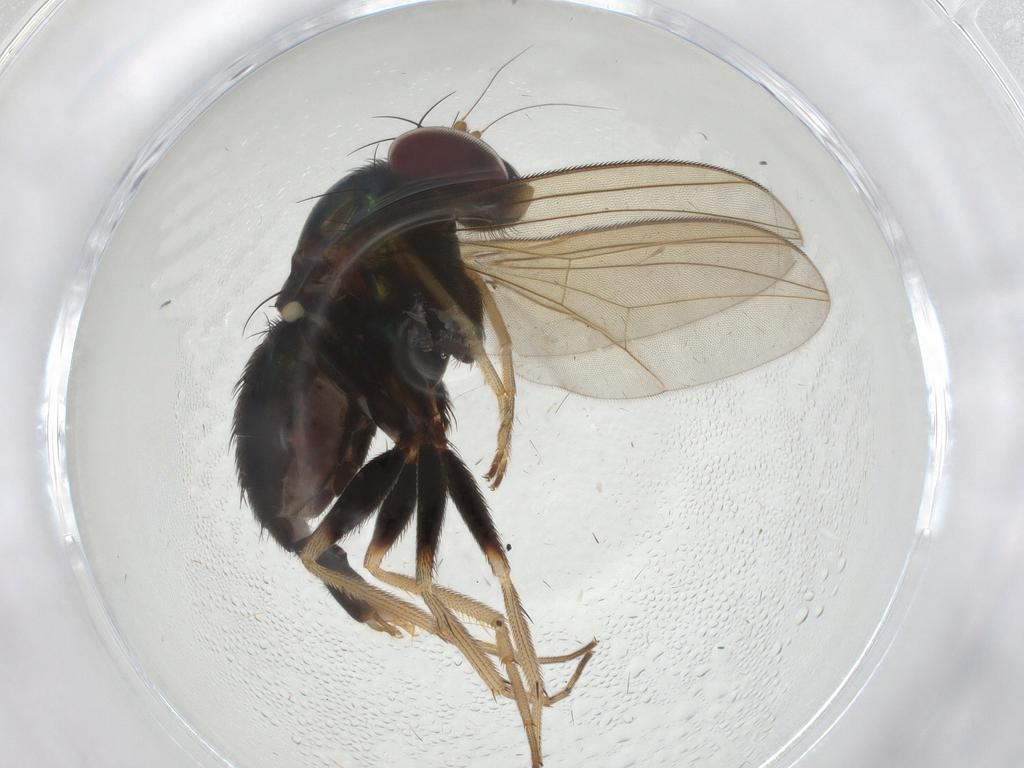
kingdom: Animalia
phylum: Arthropoda
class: Insecta
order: Diptera
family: Dolichopodidae
